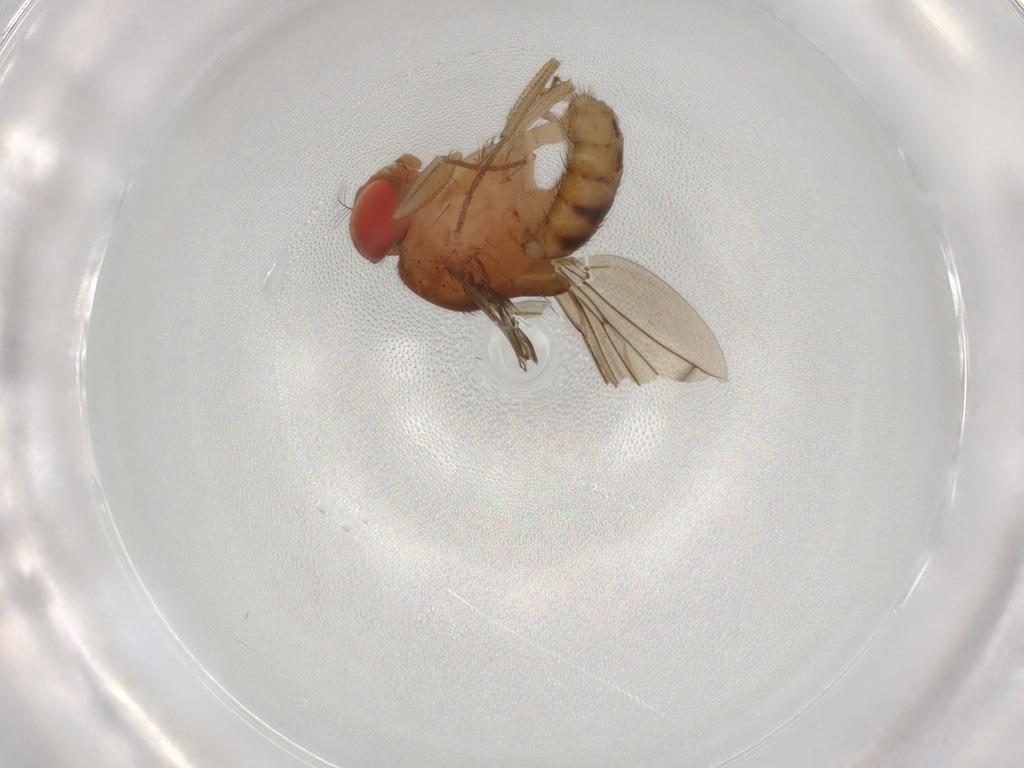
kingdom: Animalia
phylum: Arthropoda
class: Insecta
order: Diptera
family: Drosophilidae
